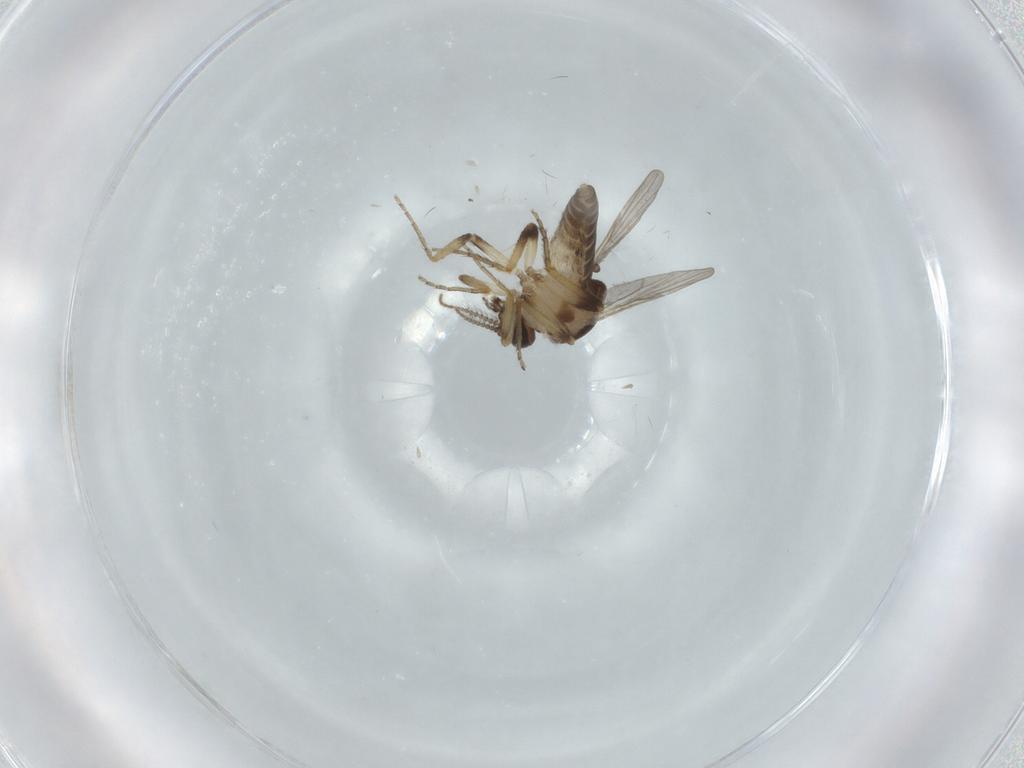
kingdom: Animalia
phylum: Arthropoda
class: Insecta
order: Diptera
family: Ceratopogonidae
